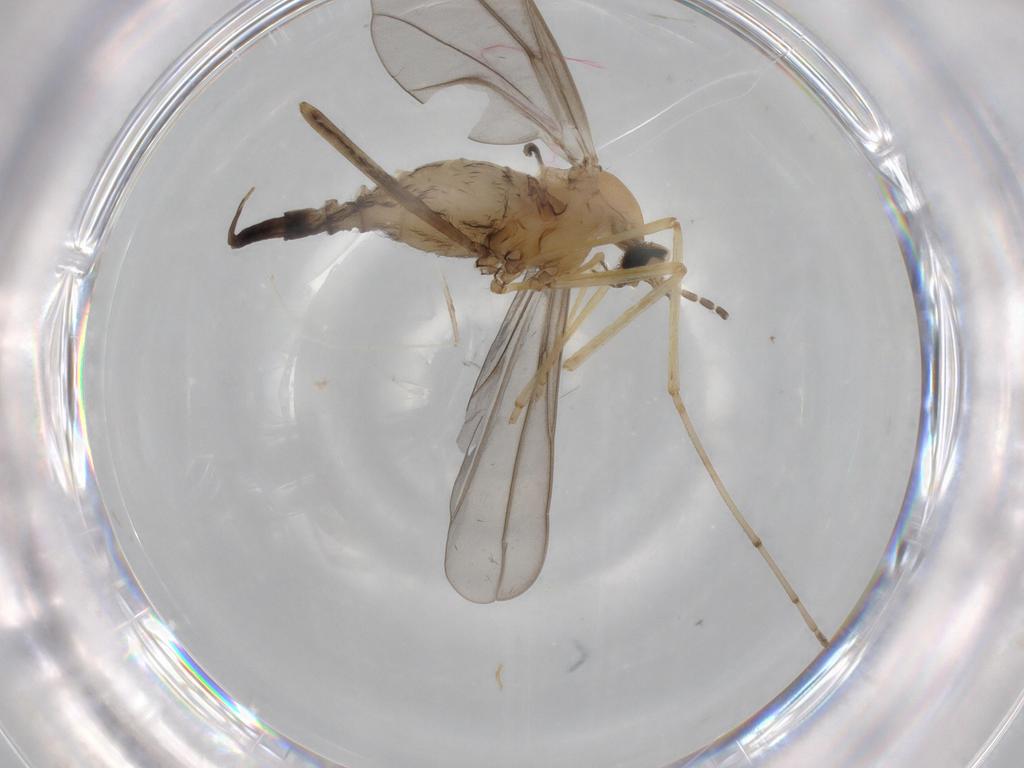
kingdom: Animalia
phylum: Arthropoda
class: Insecta
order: Diptera
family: Cecidomyiidae
